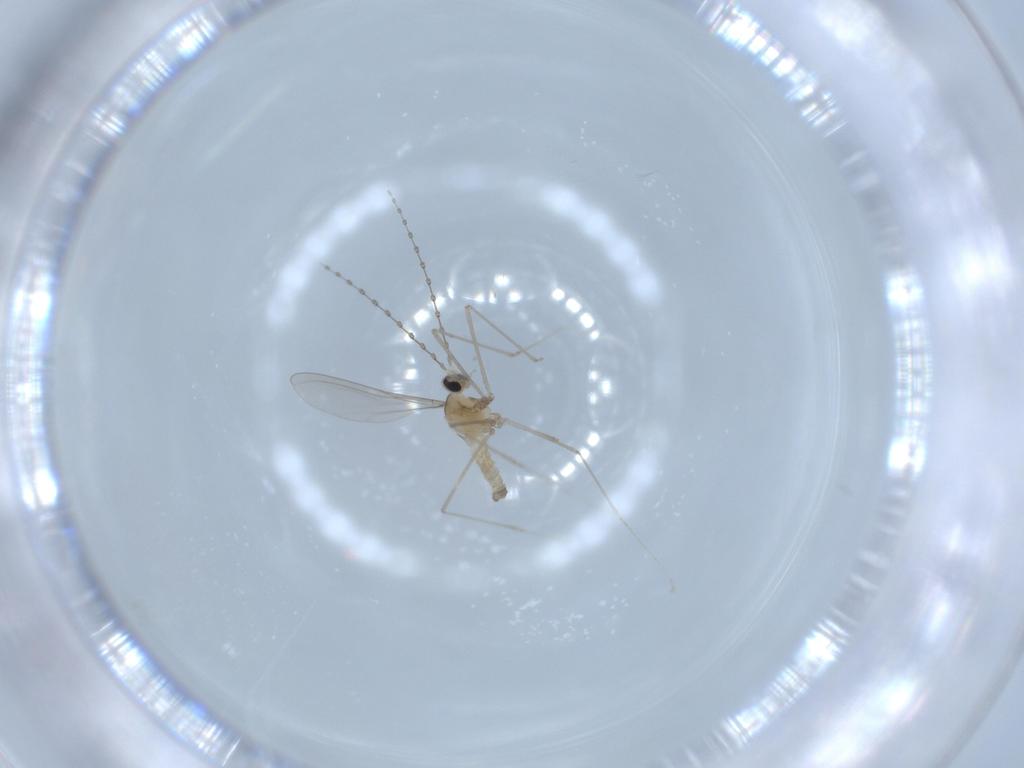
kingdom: Animalia
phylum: Arthropoda
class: Insecta
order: Diptera
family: Cecidomyiidae
